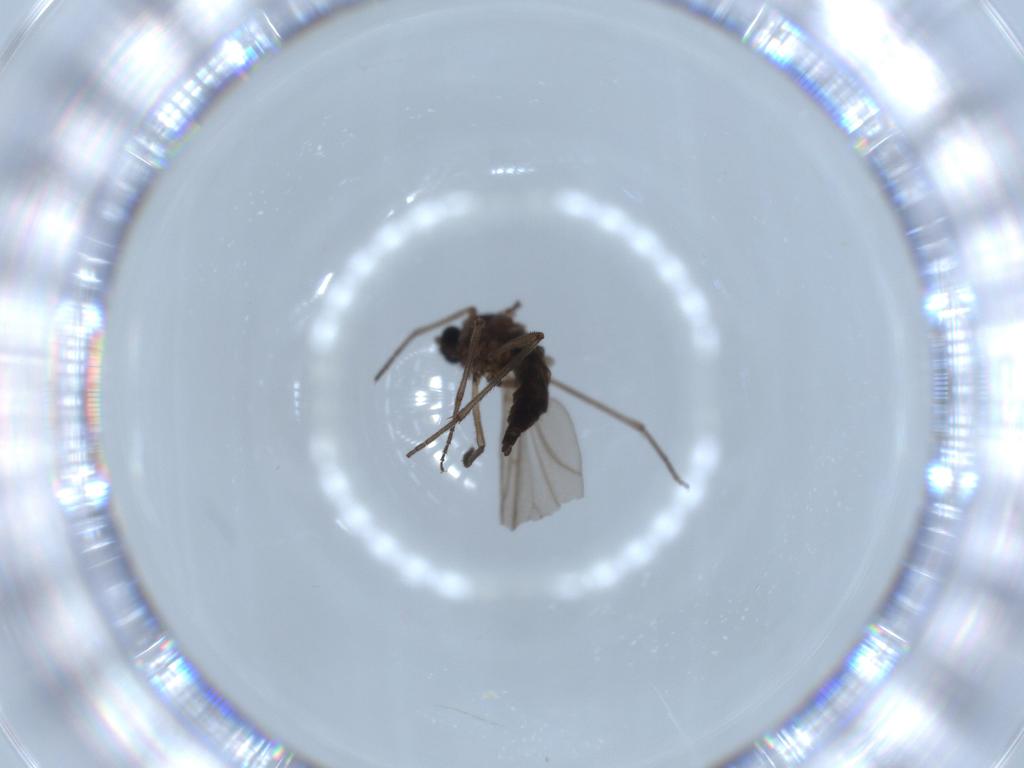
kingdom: Animalia
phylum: Arthropoda
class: Insecta
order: Diptera
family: Sciaridae
